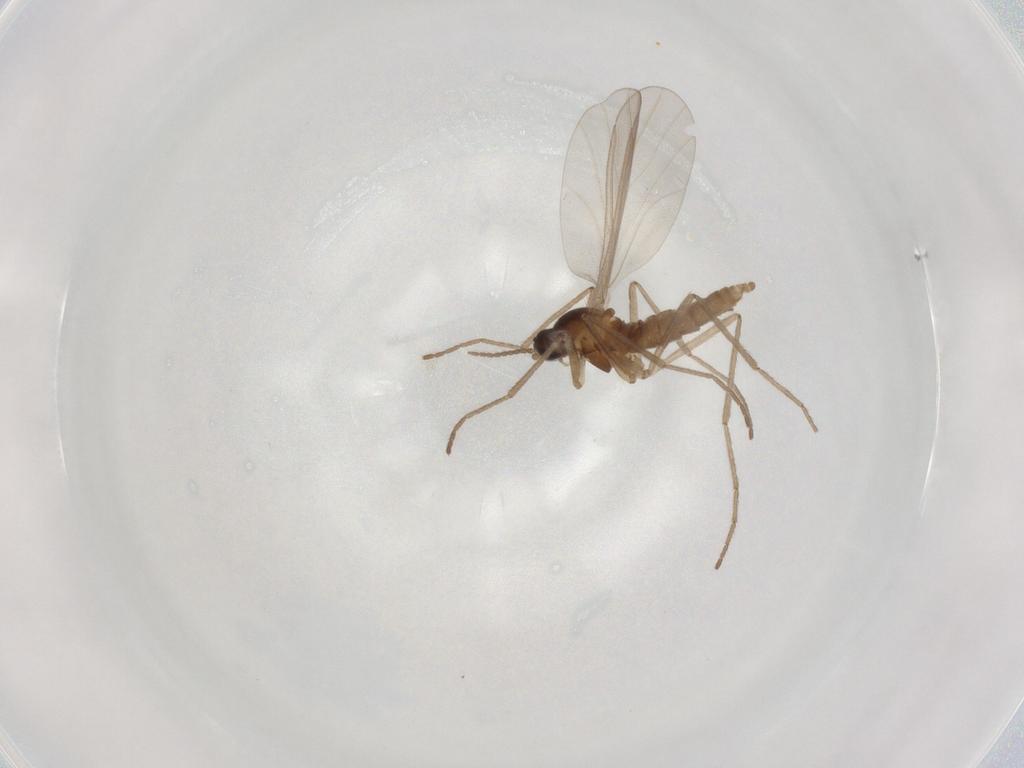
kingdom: Animalia
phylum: Arthropoda
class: Insecta
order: Diptera
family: Cecidomyiidae
